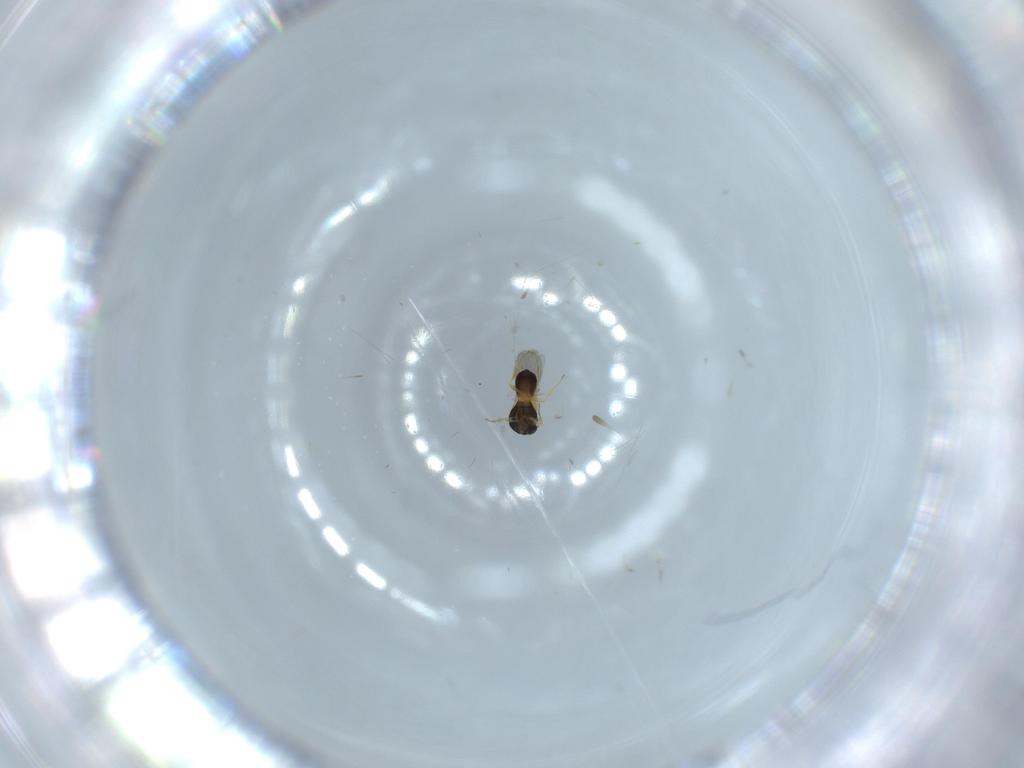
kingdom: Animalia
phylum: Arthropoda
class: Insecta
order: Hymenoptera
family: Scelionidae
